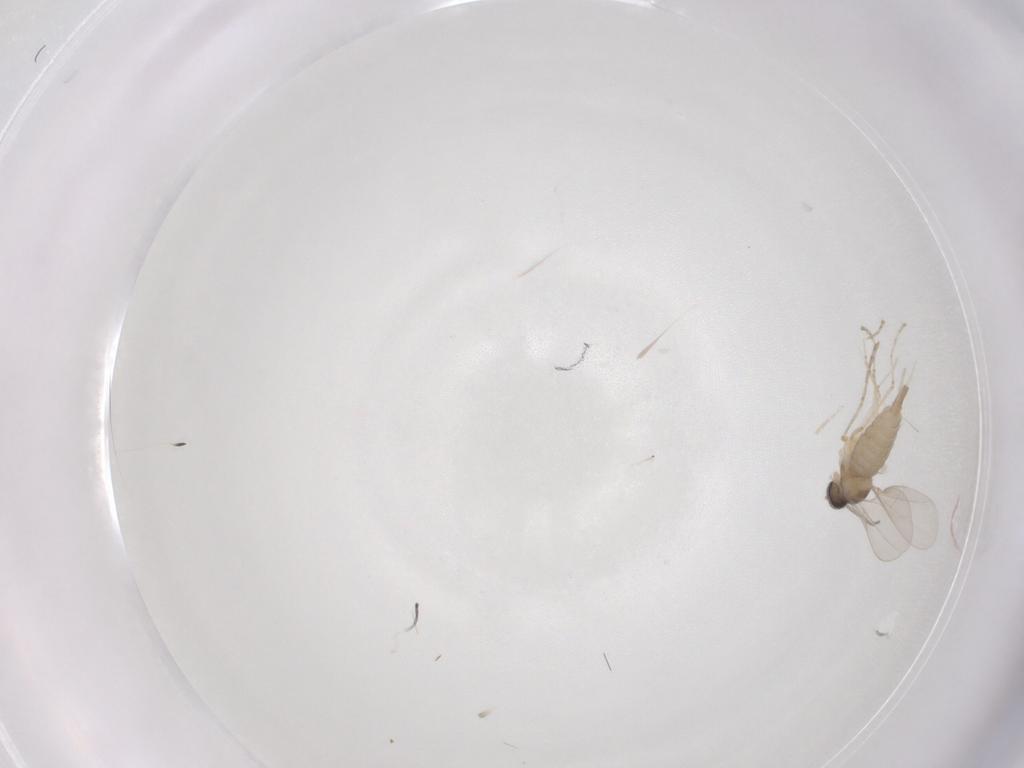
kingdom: Animalia
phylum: Arthropoda
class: Insecta
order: Diptera
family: Cecidomyiidae
